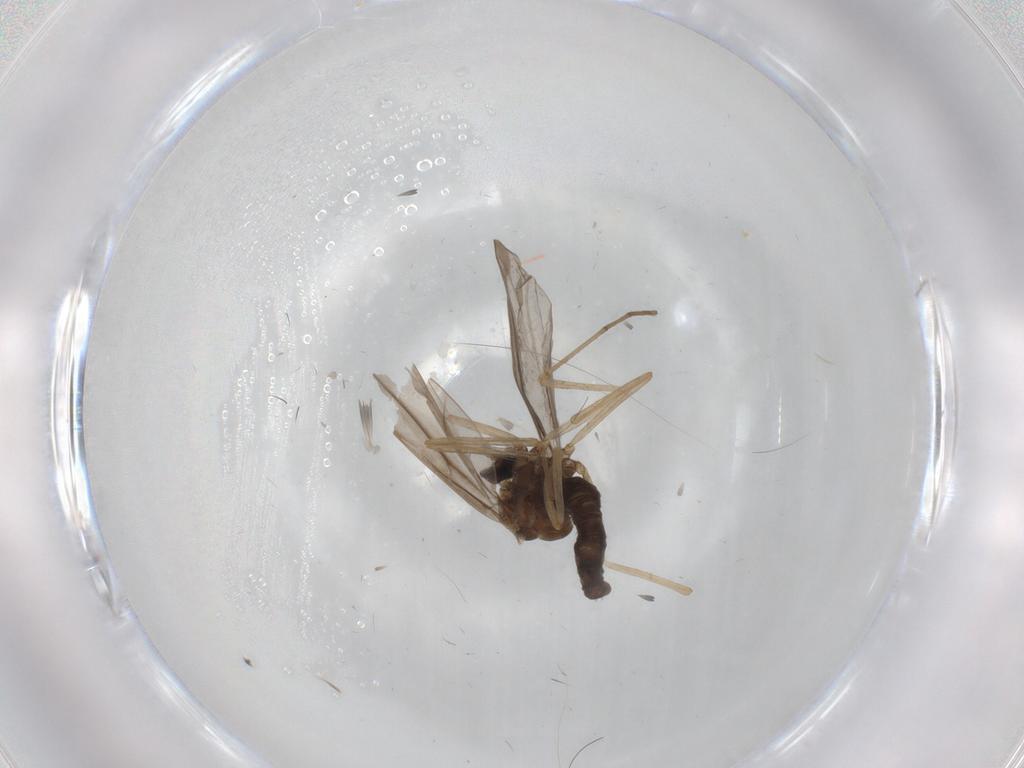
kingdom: Animalia
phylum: Arthropoda
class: Insecta
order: Diptera
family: Cecidomyiidae
